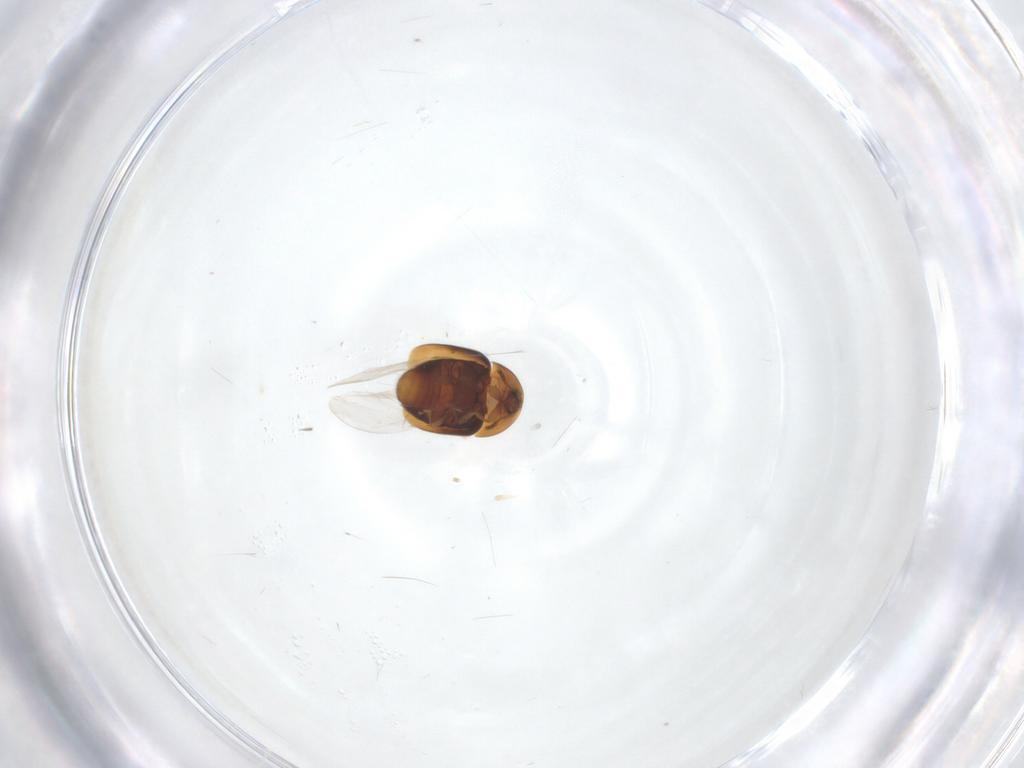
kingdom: Animalia
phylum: Arthropoda
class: Insecta
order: Coleoptera
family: Corylophidae
